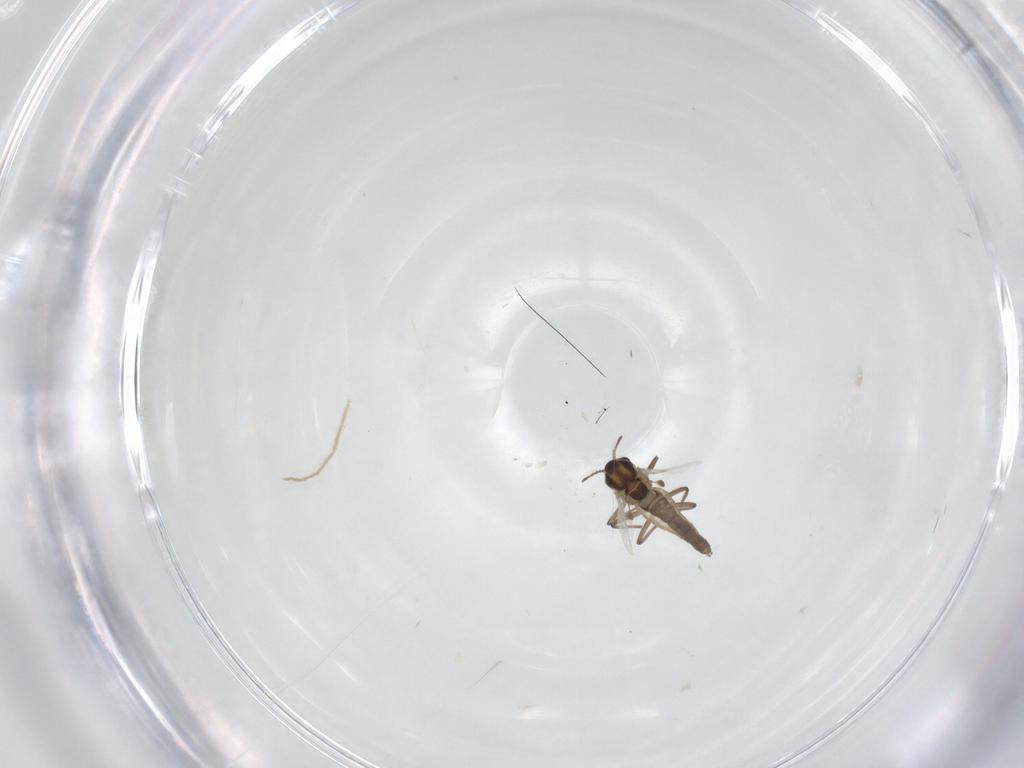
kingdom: Animalia
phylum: Arthropoda
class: Insecta
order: Diptera
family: Chironomidae
